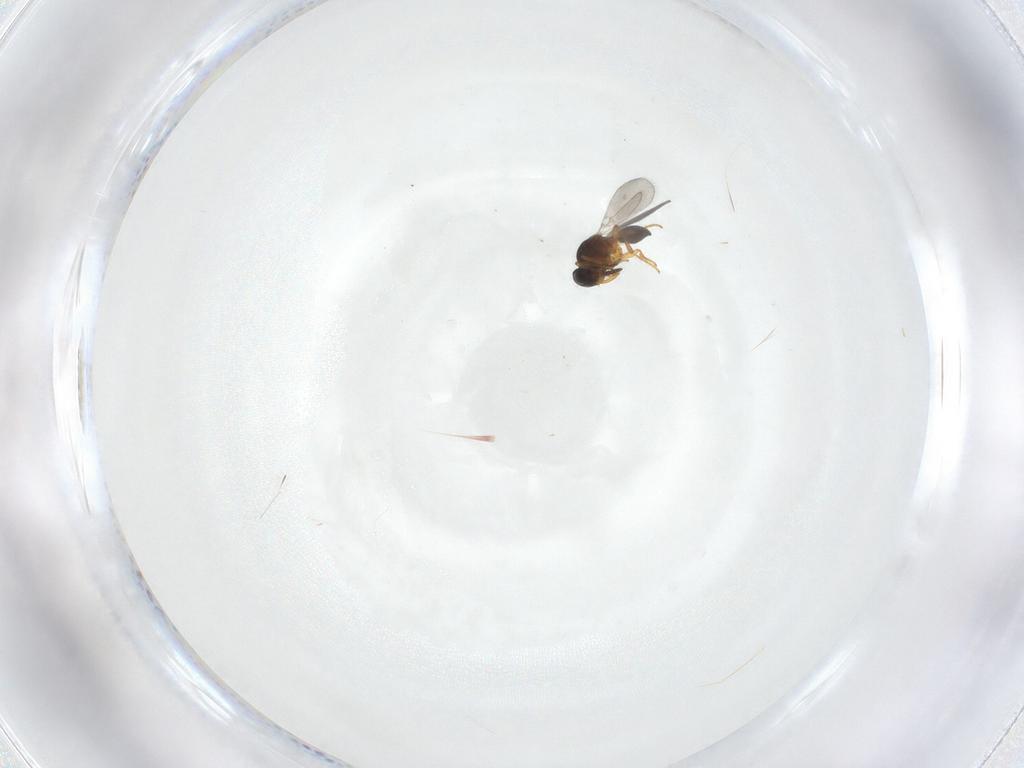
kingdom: Animalia
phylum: Arthropoda
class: Insecta
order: Hymenoptera
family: Platygastridae
